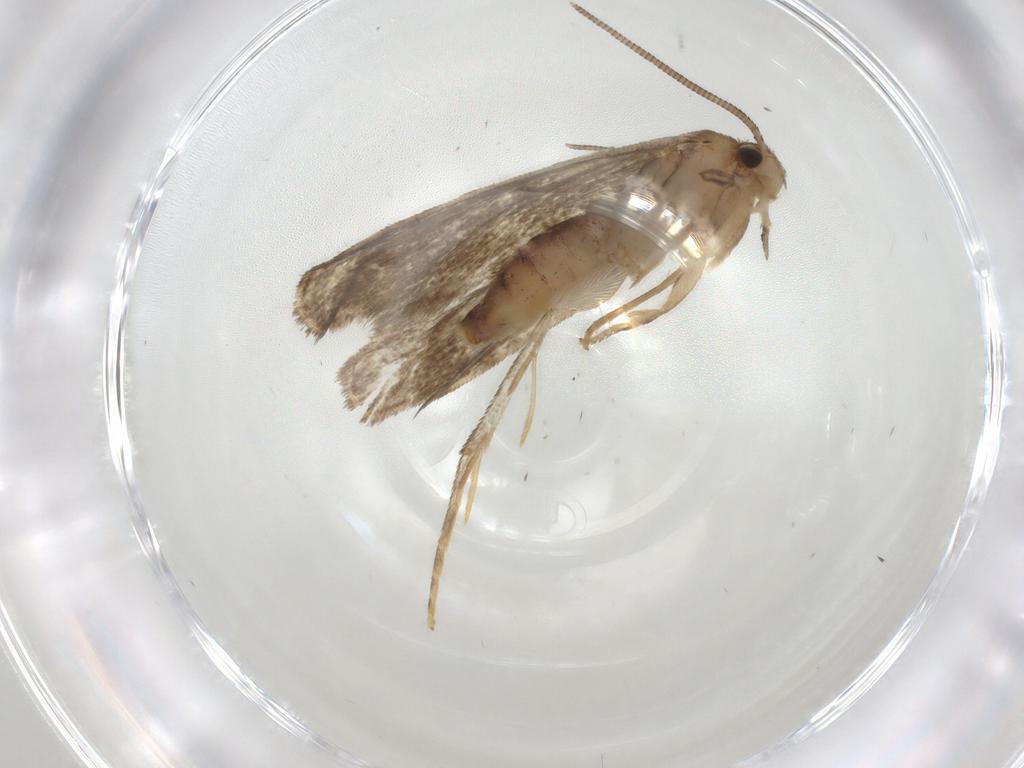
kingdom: Animalia
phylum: Arthropoda
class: Insecta
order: Lepidoptera
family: Dryadaulidae
